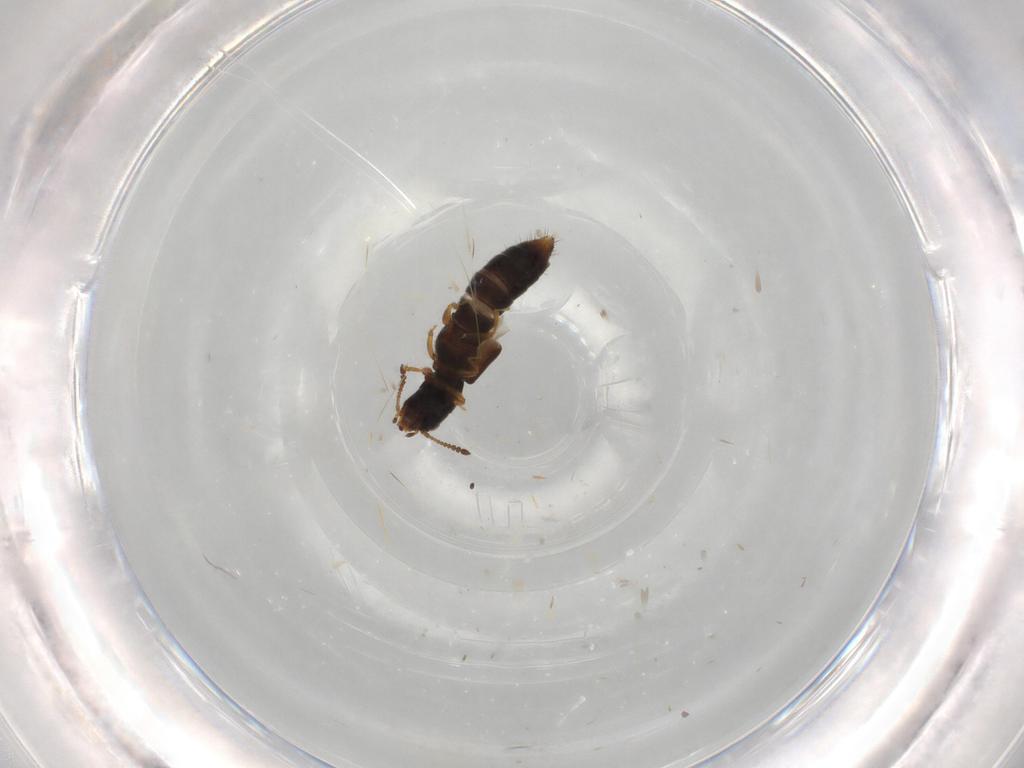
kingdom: Animalia
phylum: Arthropoda
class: Insecta
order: Coleoptera
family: Staphylinidae
